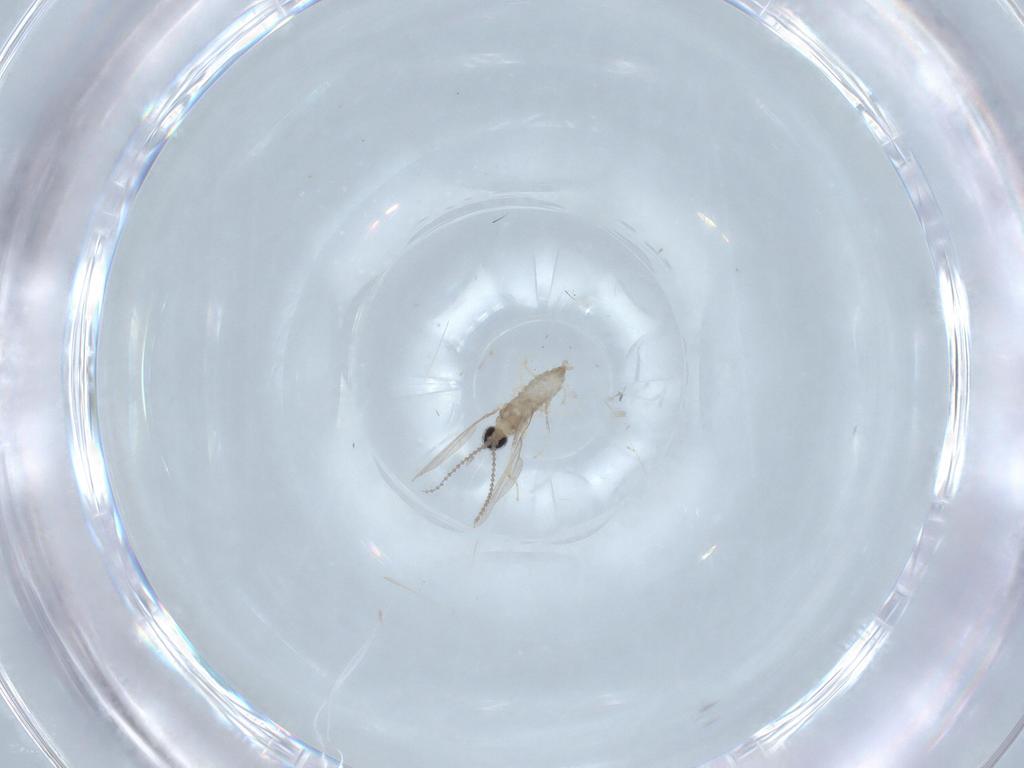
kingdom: Animalia
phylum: Arthropoda
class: Insecta
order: Diptera
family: Cecidomyiidae
